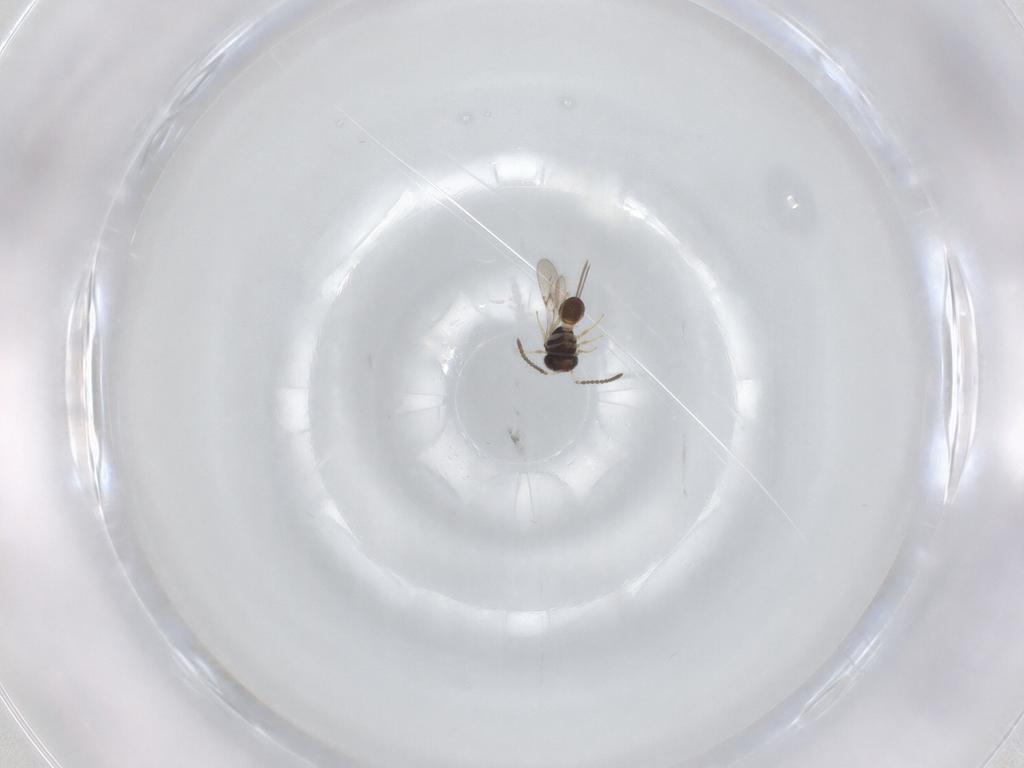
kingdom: Animalia
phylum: Arthropoda
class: Insecta
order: Hymenoptera
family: Scelionidae
